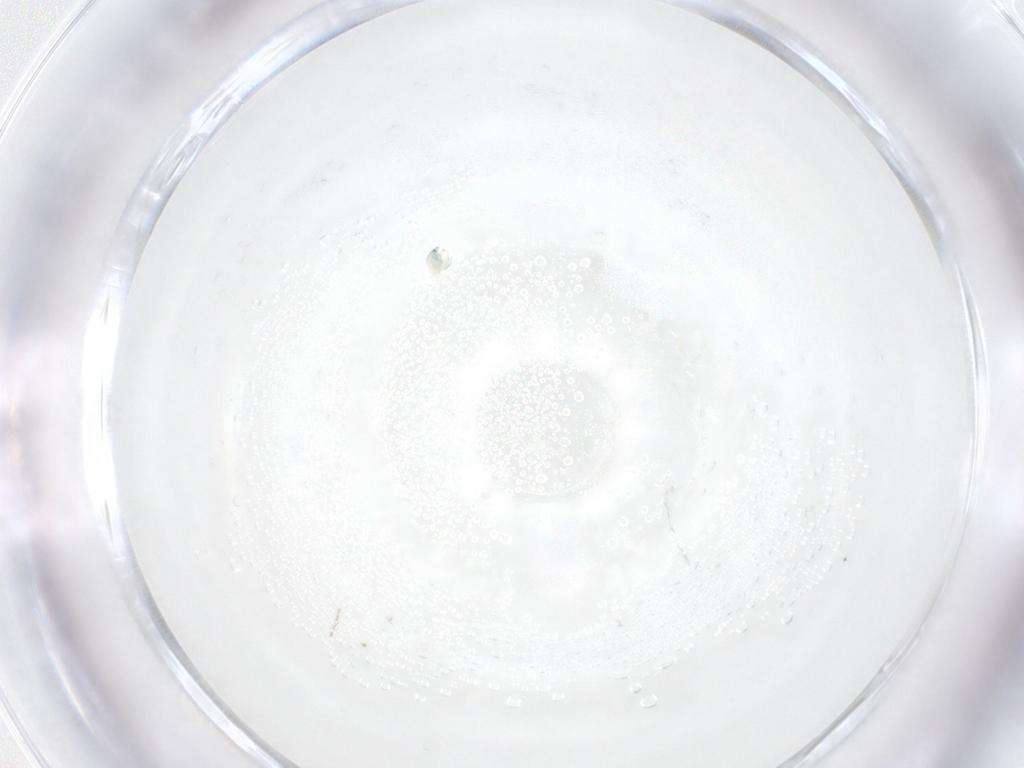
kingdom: Animalia
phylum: Arthropoda
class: Arachnida
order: Trombidiformes
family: Arrenuridae
